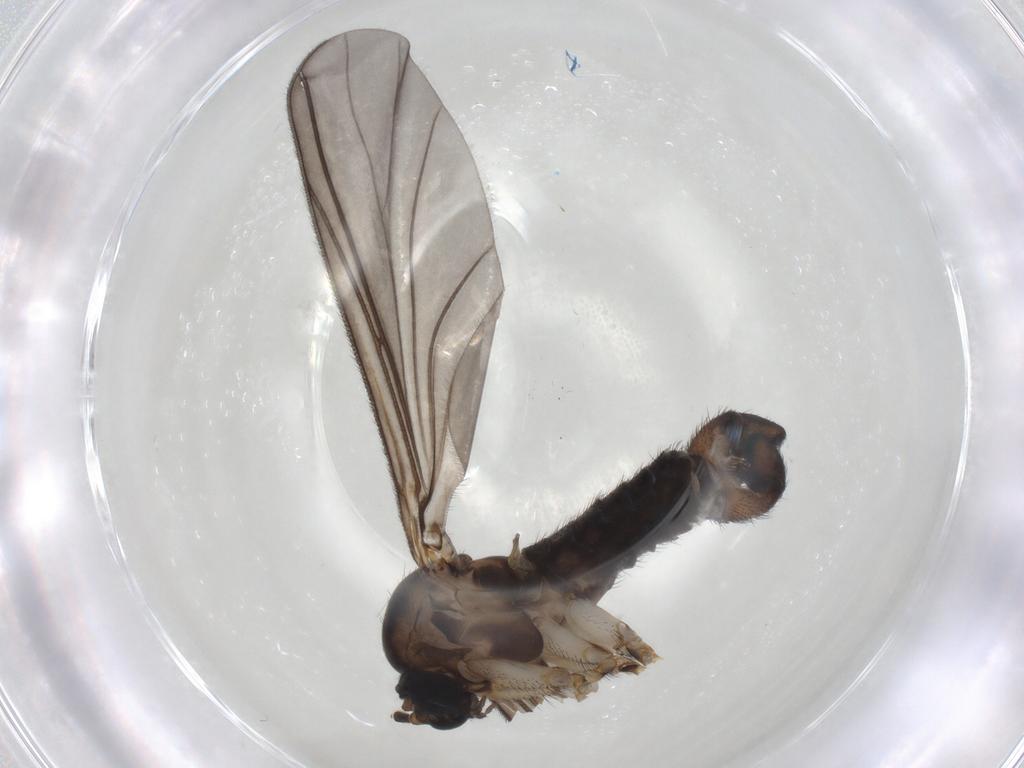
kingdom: Animalia
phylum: Arthropoda
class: Insecta
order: Diptera
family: Sciaridae
